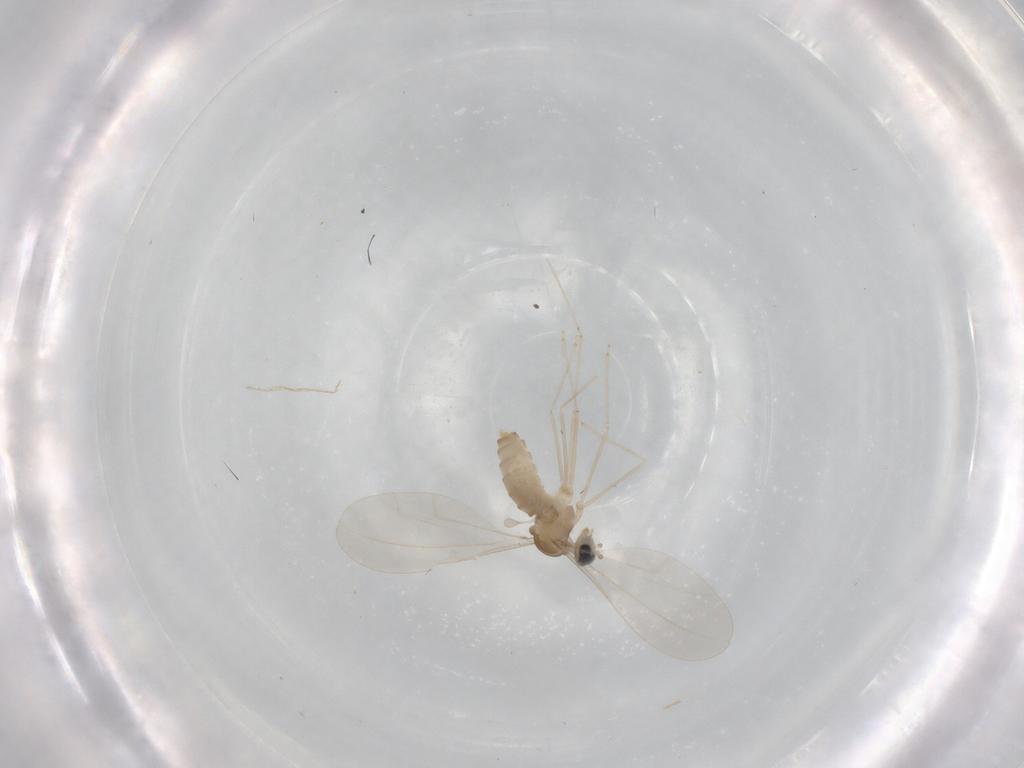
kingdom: Animalia
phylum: Arthropoda
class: Insecta
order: Diptera
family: Cecidomyiidae
